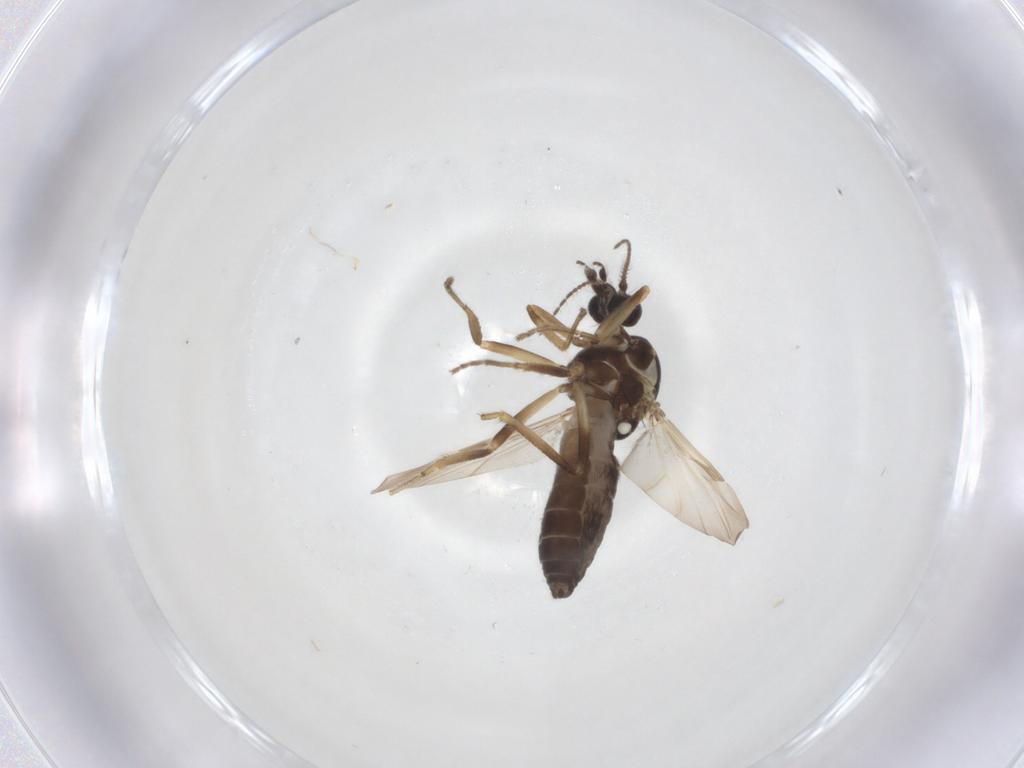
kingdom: Animalia
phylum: Arthropoda
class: Insecta
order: Diptera
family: Ceratopogonidae
